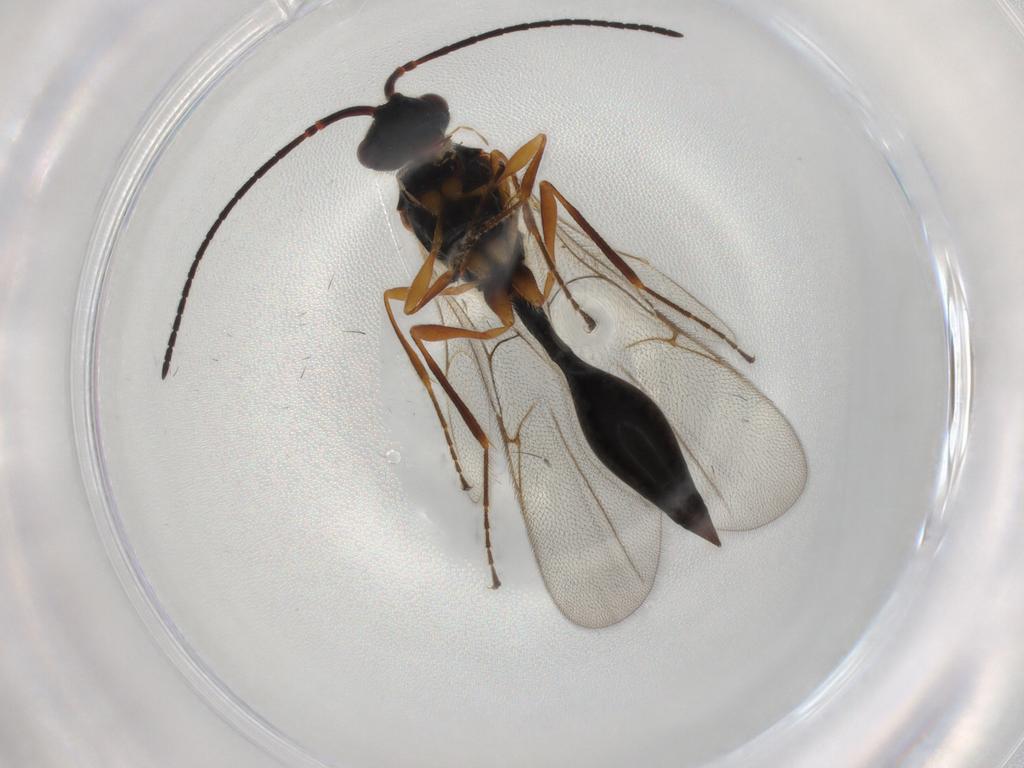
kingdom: Animalia
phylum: Arthropoda
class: Insecta
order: Hymenoptera
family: Diapriidae
